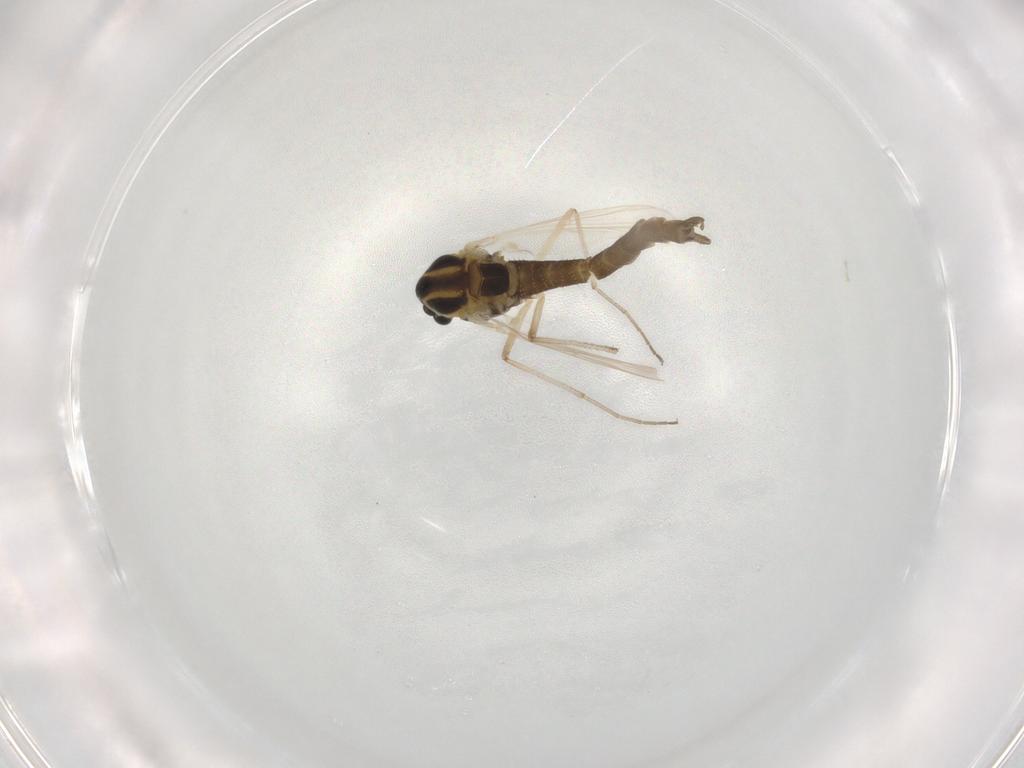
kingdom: Animalia
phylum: Arthropoda
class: Insecta
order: Diptera
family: Chironomidae
